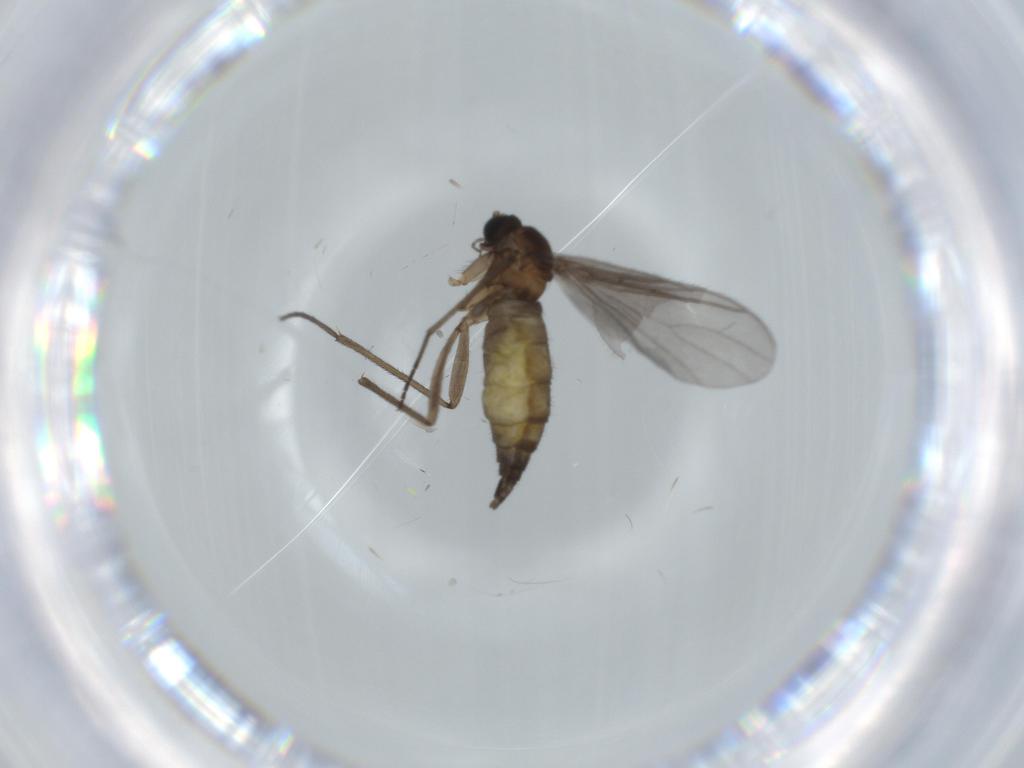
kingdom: Animalia
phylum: Arthropoda
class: Insecta
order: Diptera
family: Sciaridae
